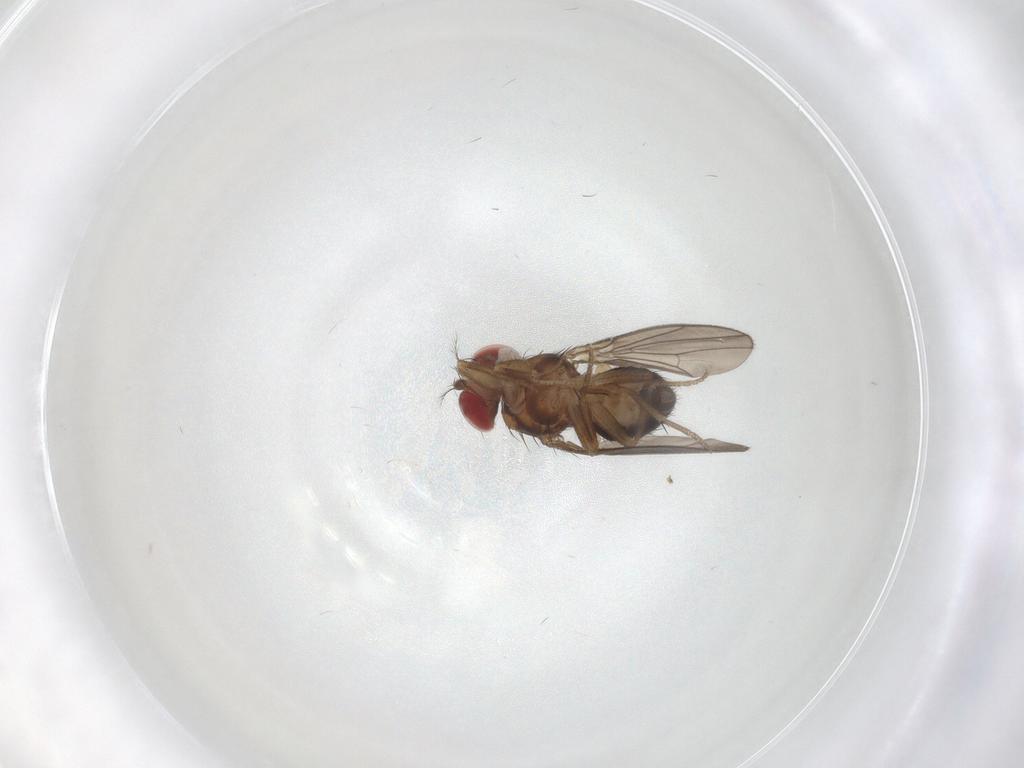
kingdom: Animalia
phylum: Arthropoda
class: Insecta
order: Diptera
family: Drosophilidae
